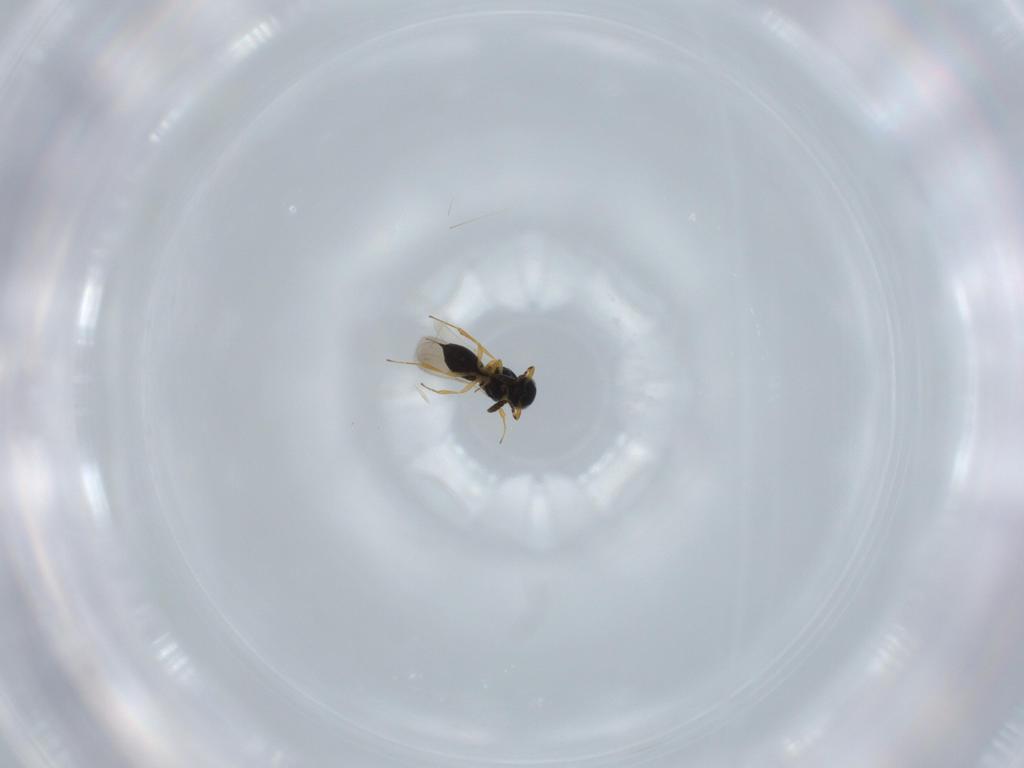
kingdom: Animalia
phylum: Arthropoda
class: Insecta
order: Hymenoptera
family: Scelionidae
